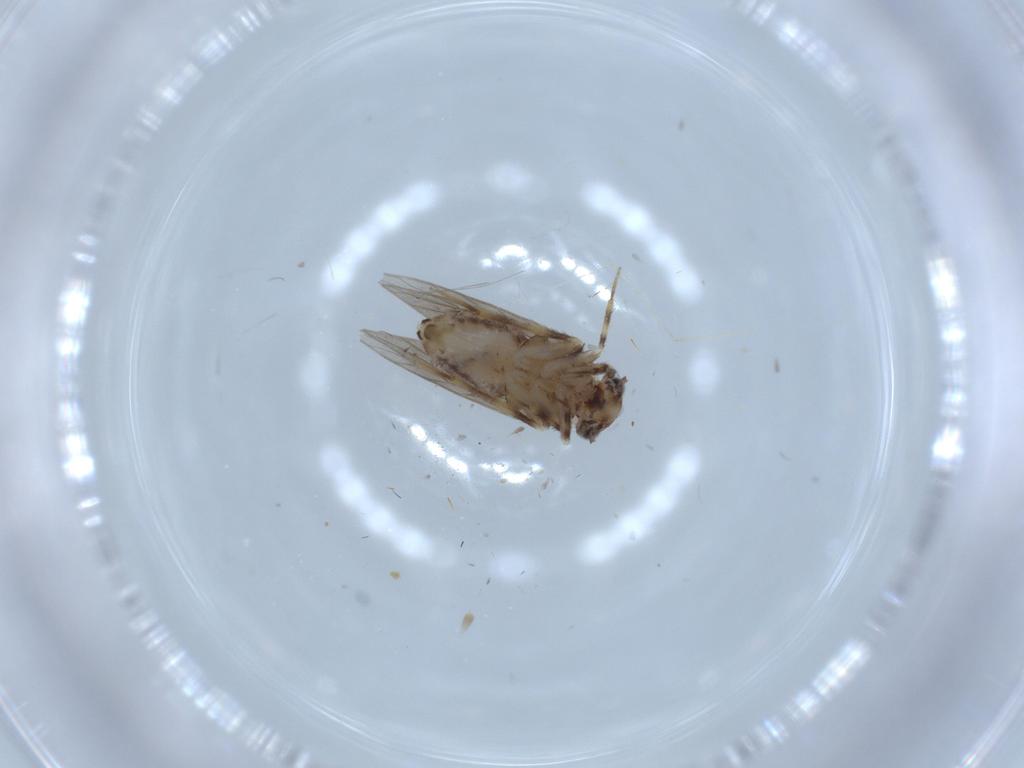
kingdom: Animalia
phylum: Arthropoda
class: Insecta
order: Psocodea
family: Lepidopsocidae
